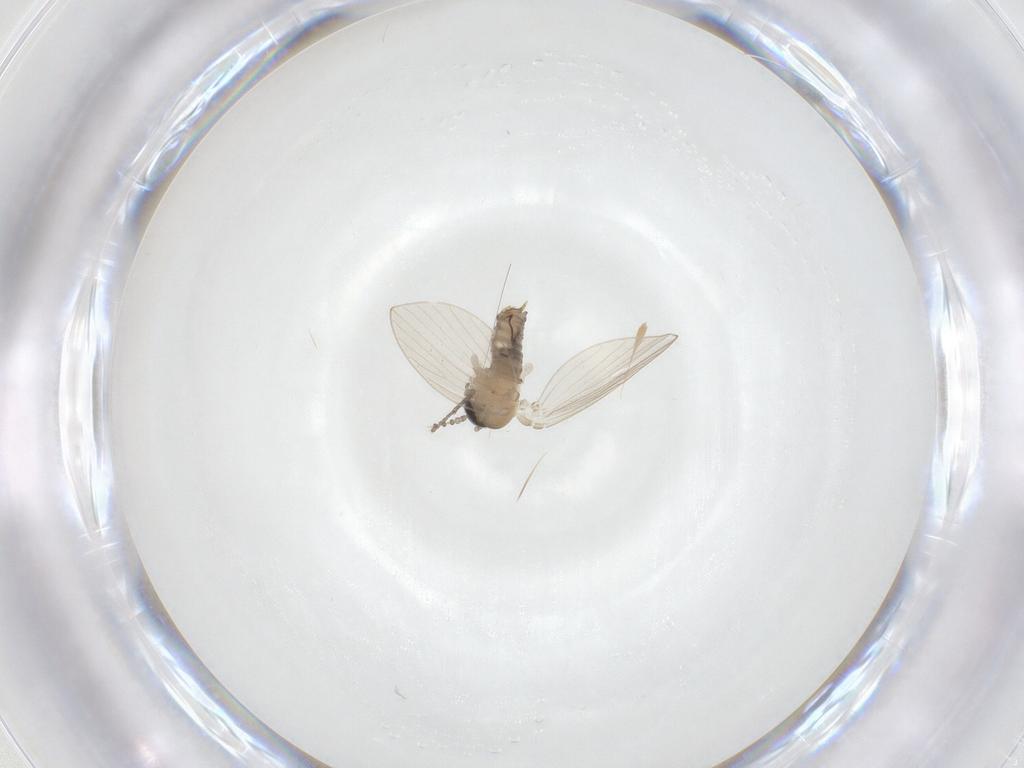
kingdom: Animalia
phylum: Arthropoda
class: Insecta
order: Diptera
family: Psychodidae
